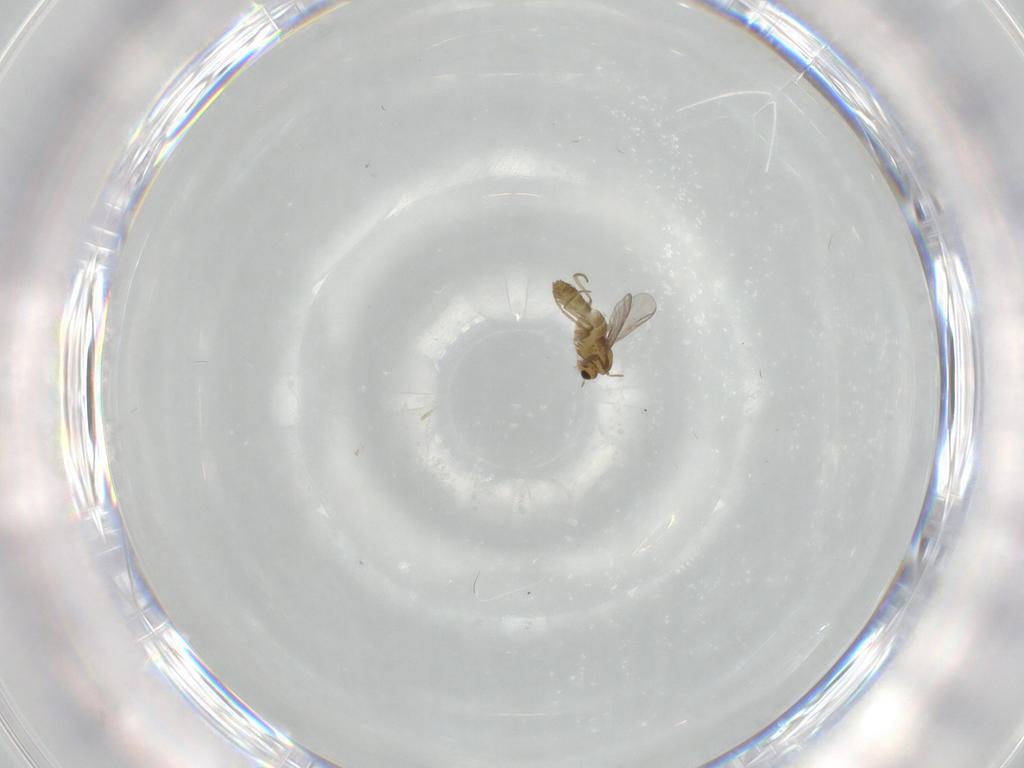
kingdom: Animalia
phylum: Arthropoda
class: Insecta
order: Diptera
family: Chironomidae
